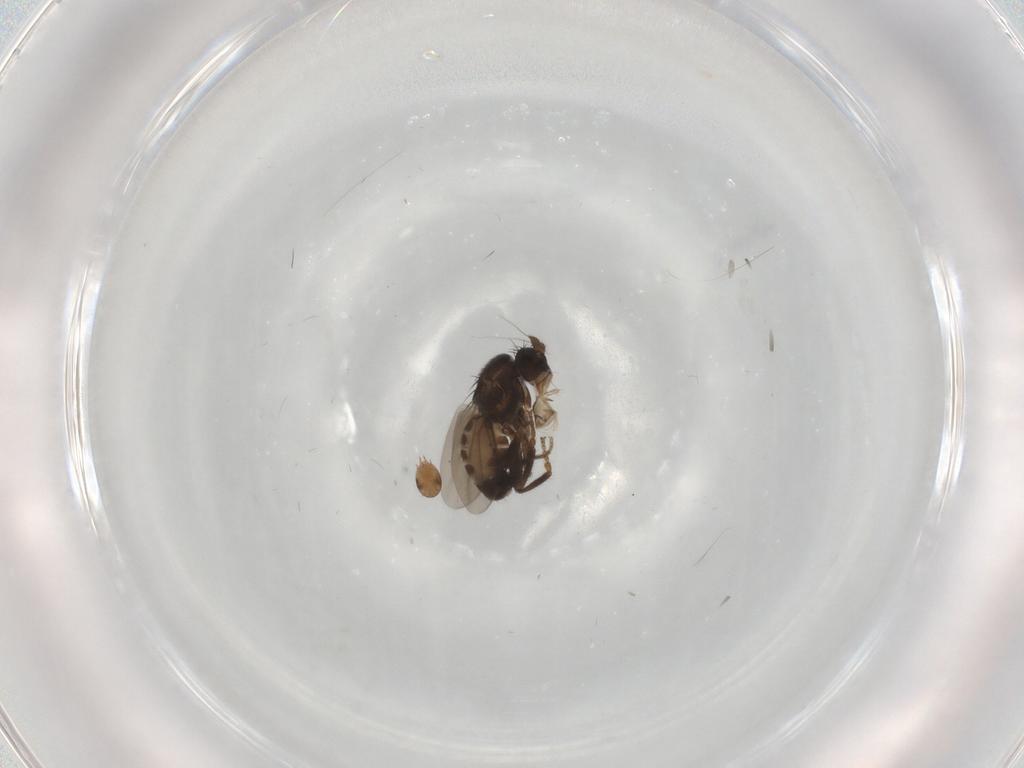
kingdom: Animalia
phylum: Arthropoda
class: Insecta
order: Diptera
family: Sphaeroceridae
